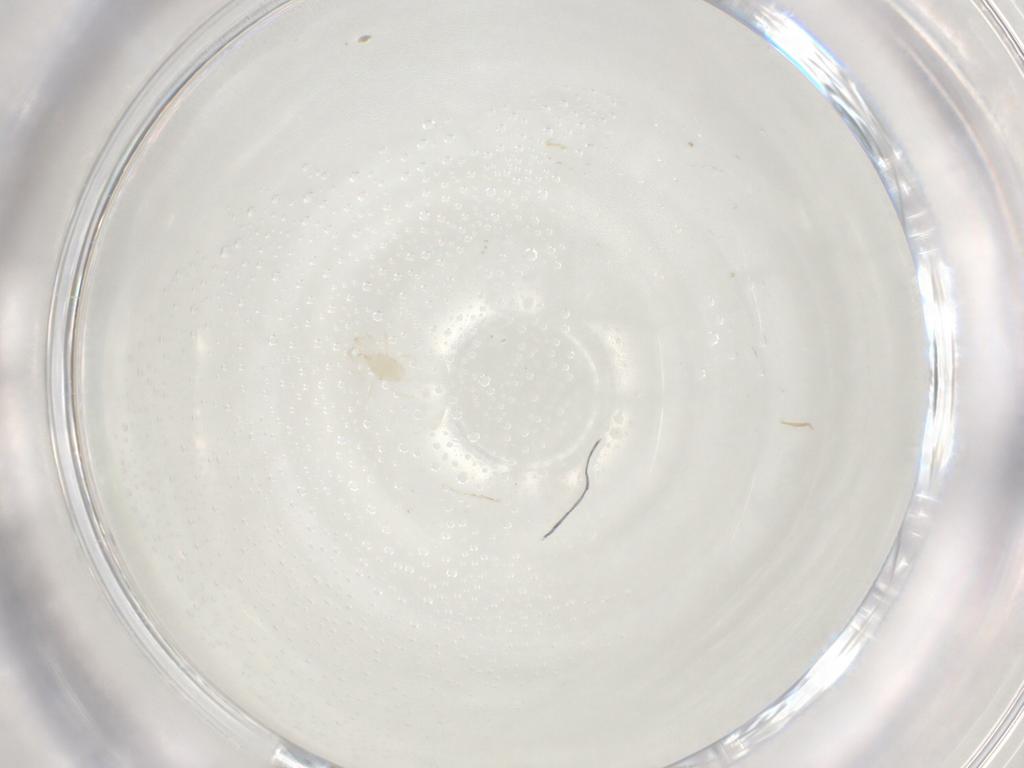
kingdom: Animalia
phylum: Arthropoda
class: Arachnida
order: Mesostigmata
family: Phytoseiidae
